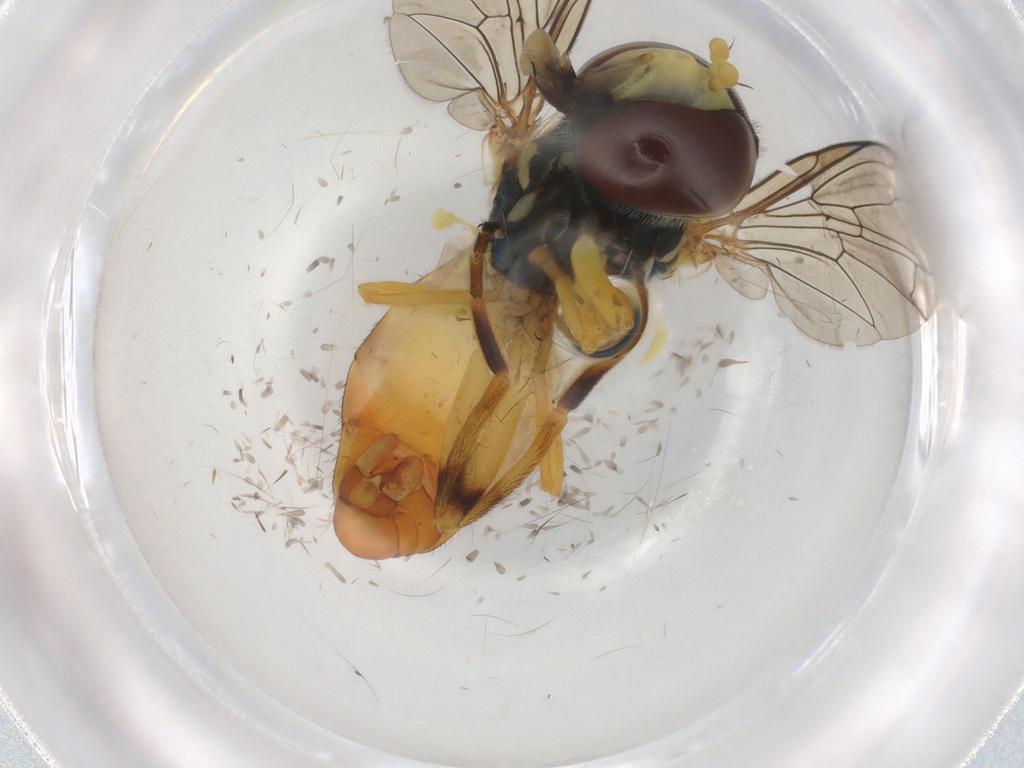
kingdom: Animalia
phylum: Arthropoda
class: Insecta
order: Diptera
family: Syrphidae
